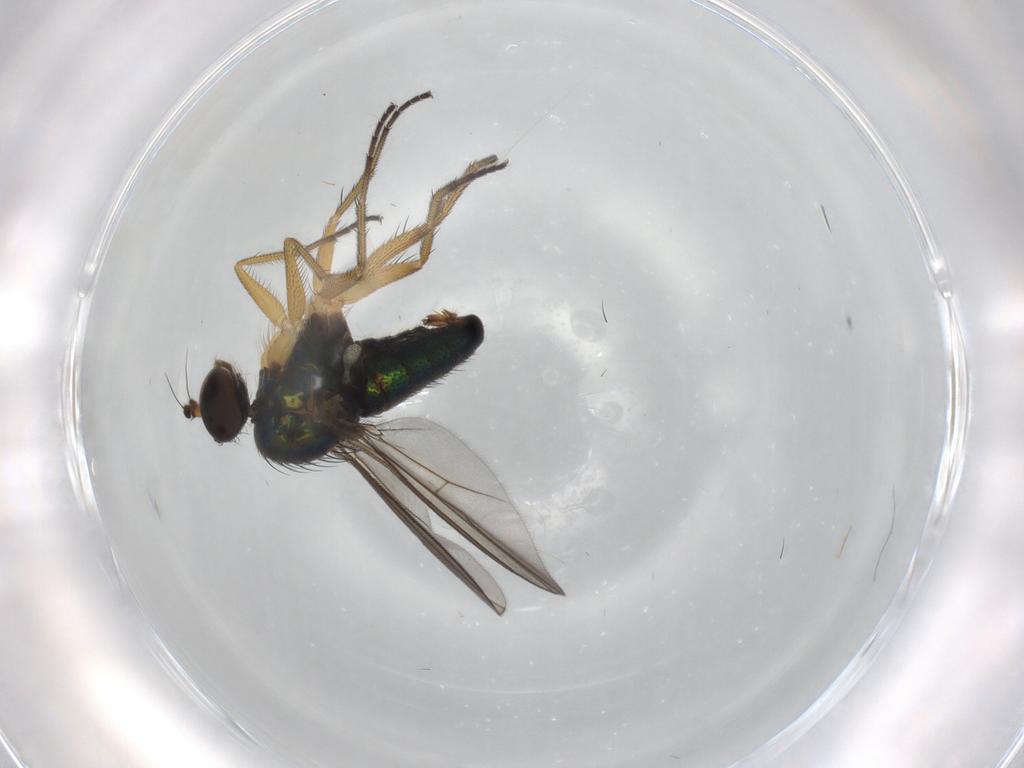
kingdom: Animalia
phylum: Arthropoda
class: Insecta
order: Diptera
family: Dolichopodidae
